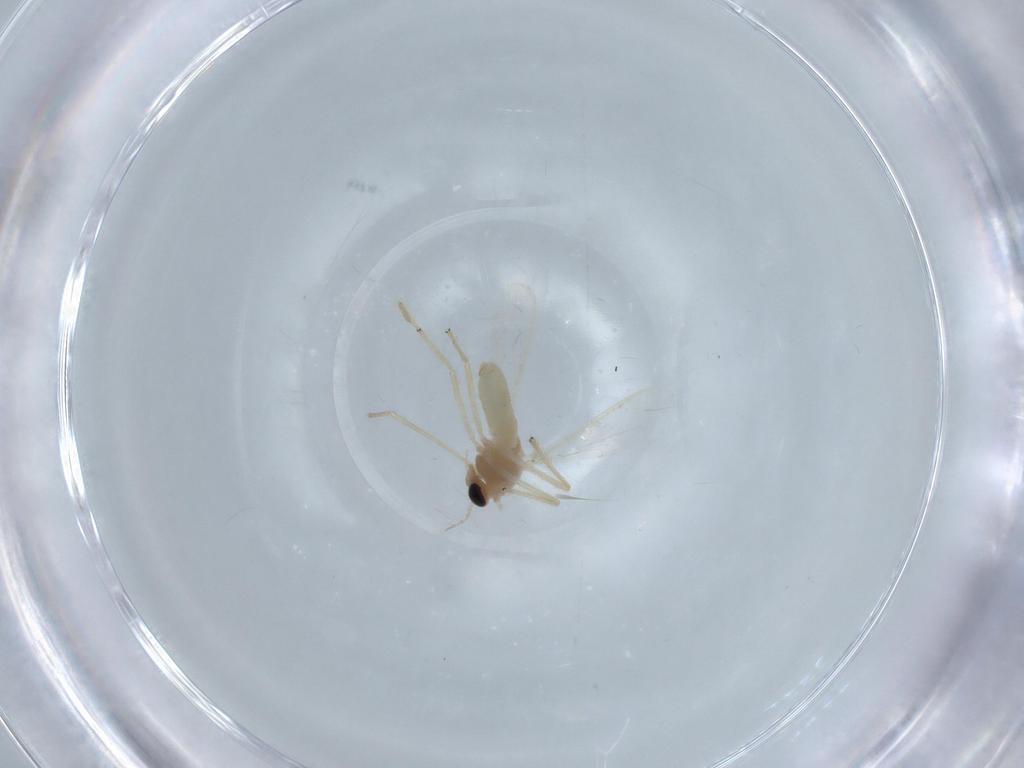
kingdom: Animalia
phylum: Arthropoda
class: Insecta
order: Diptera
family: Chironomidae
